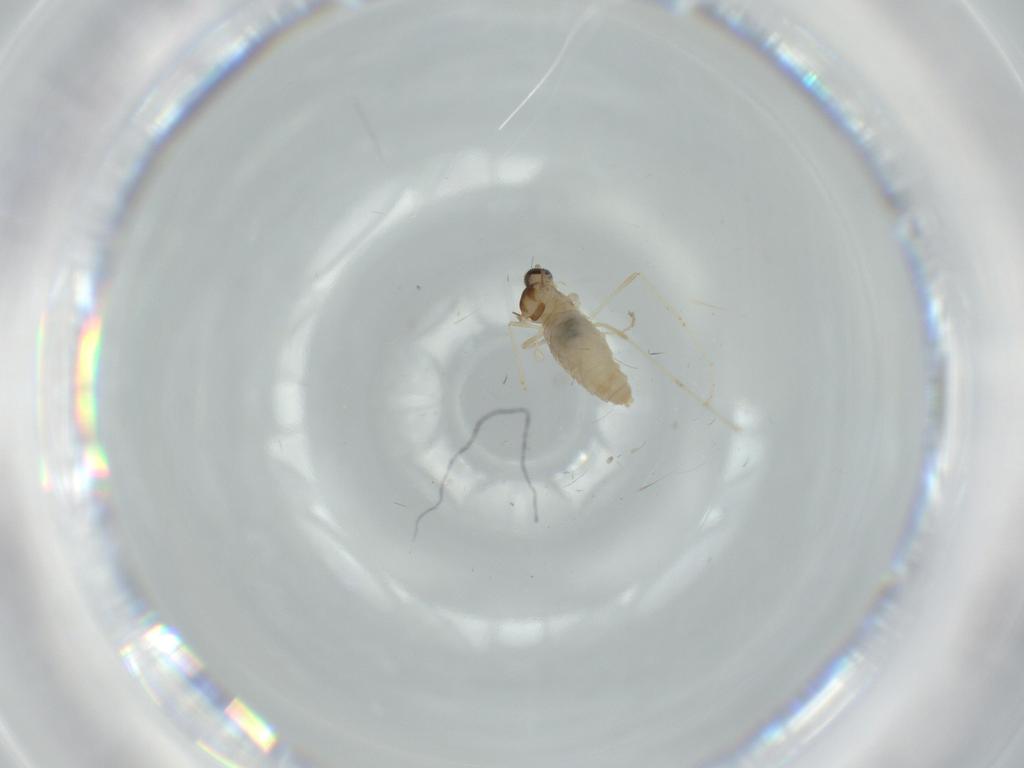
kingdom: Animalia
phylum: Arthropoda
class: Insecta
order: Diptera
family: Cecidomyiidae
